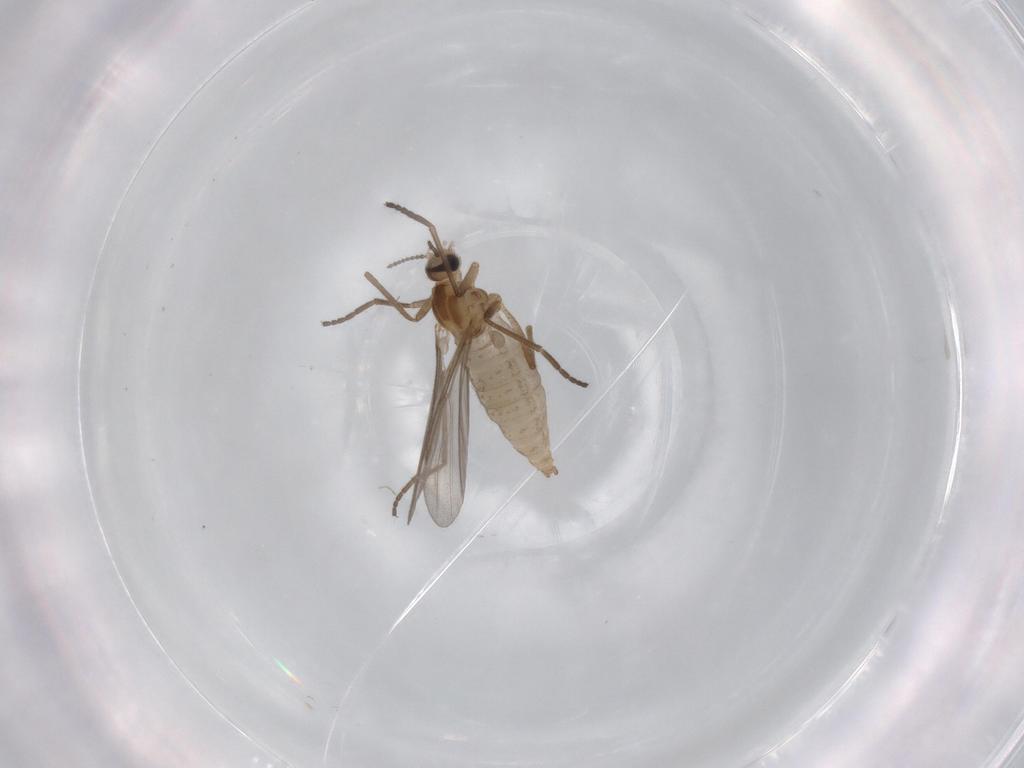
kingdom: Animalia
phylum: Arthropoda
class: Insecta
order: Diptera
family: Cecidomyiidae
